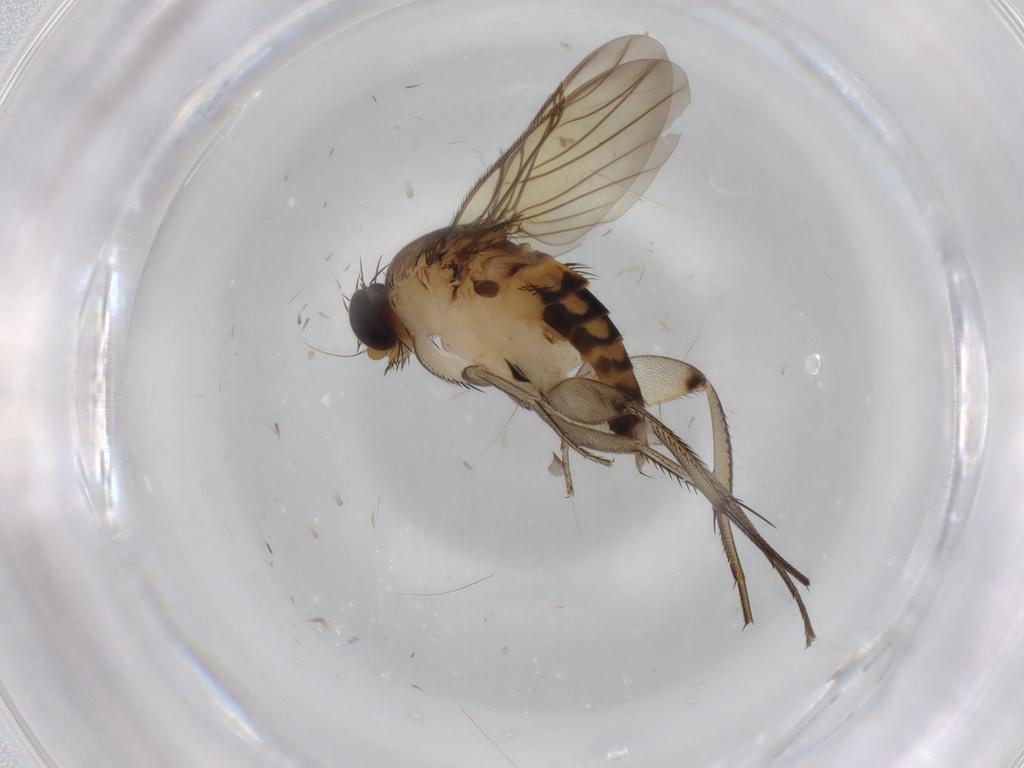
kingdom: Animalia
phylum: Arthropoda
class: Insecta
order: Diptera
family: Phoridae
